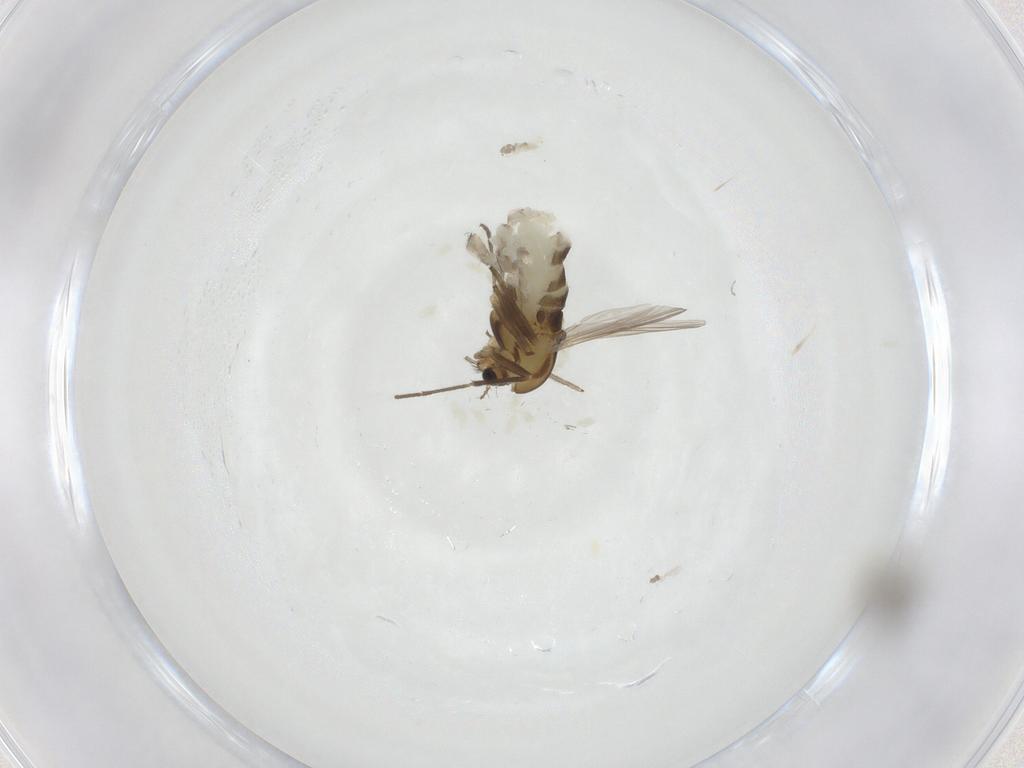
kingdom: Animalia
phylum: Arthropoda
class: Insecta
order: Diptera
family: Chironomidae
